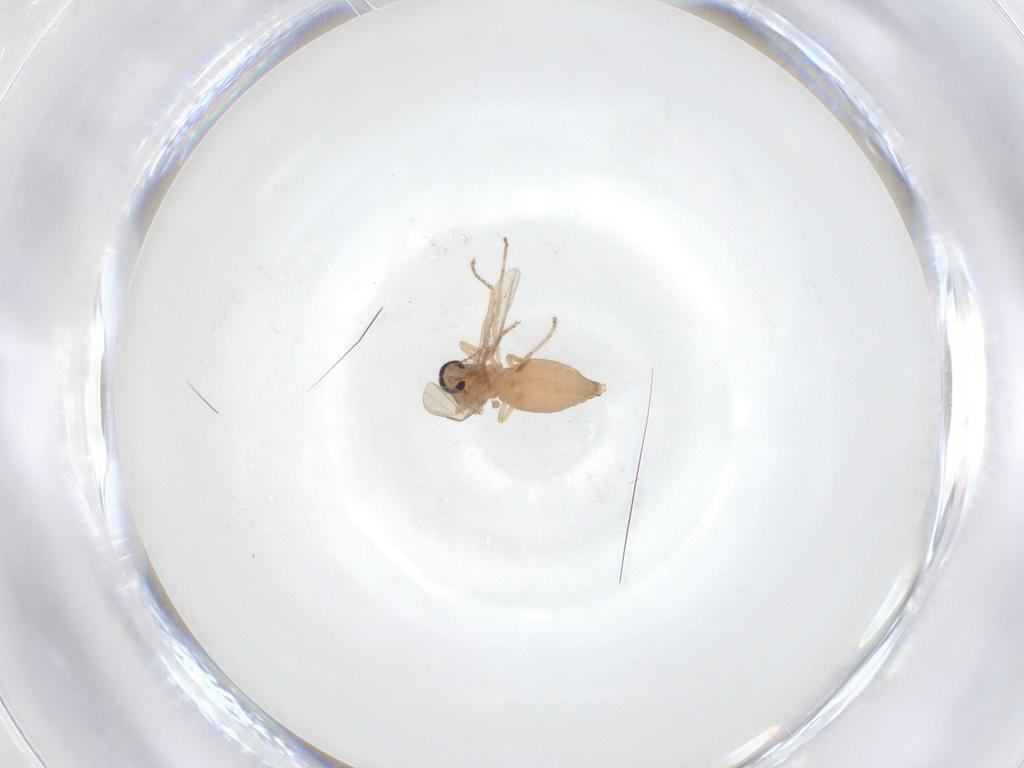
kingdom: Animalia
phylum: Arthropoda
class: Insecta
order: Diptera
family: Ceratopogonidae
